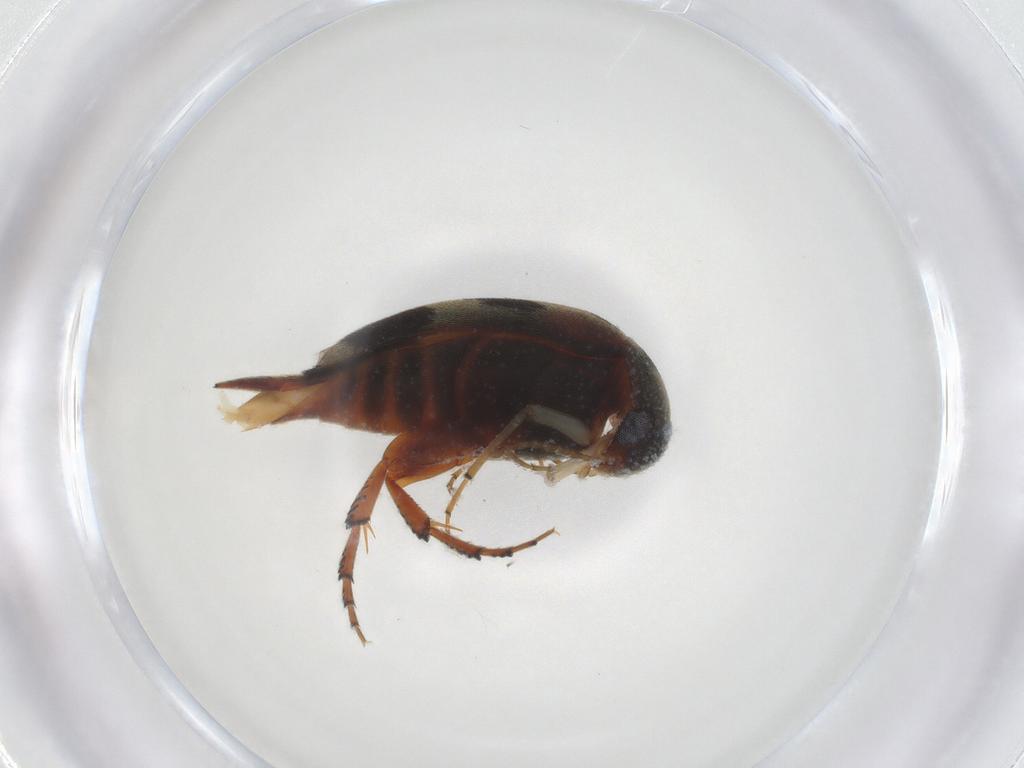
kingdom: Animalia
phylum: Arthropoda
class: Insecta
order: Coleoptera
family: Mordellidae
